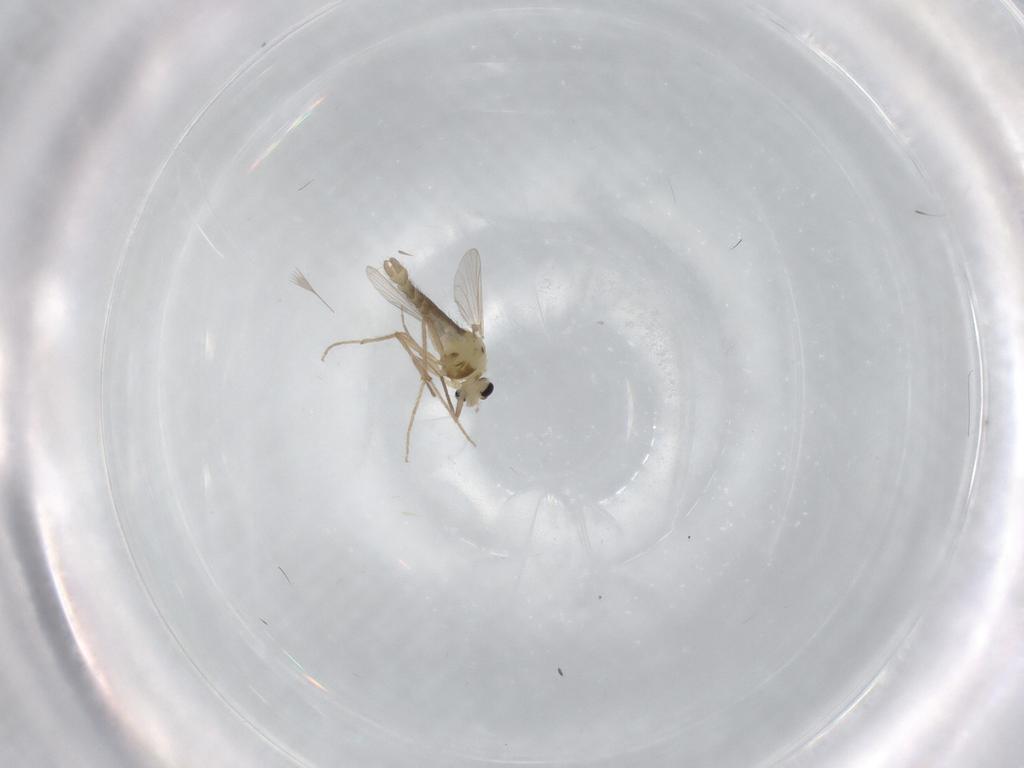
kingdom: Animalia
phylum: Arthropoda
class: Insecta
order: Diptera
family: Chironomidae
